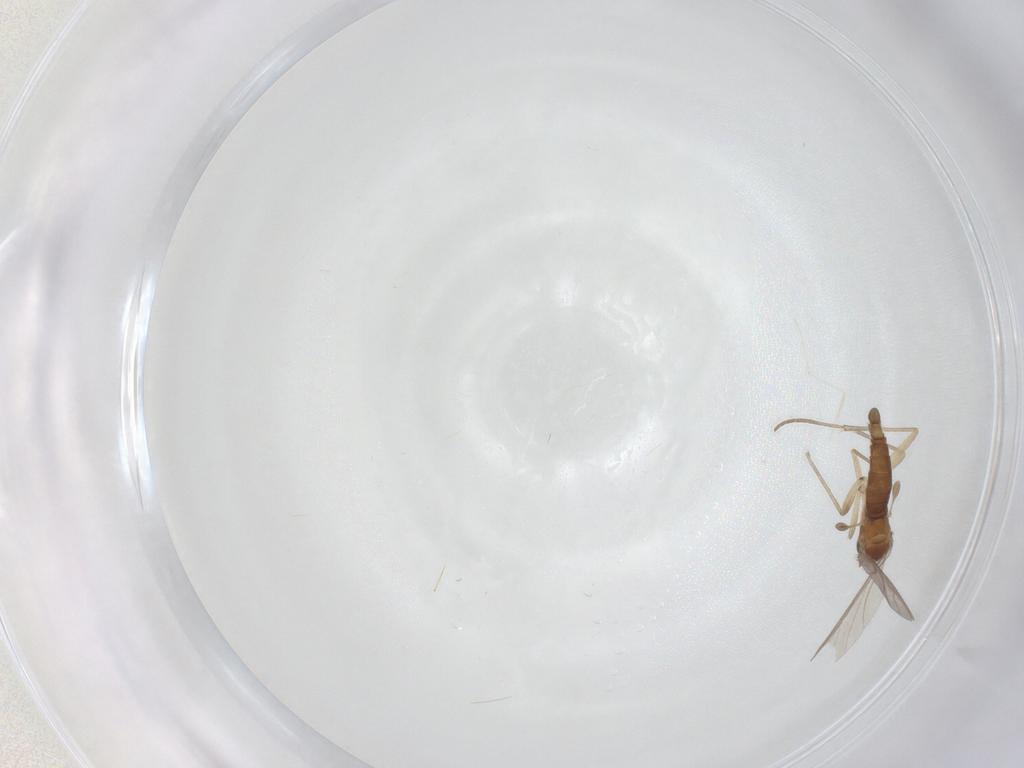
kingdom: Animalia
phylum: Arthropoda
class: Insecta
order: Diptera
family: Sciaridae
